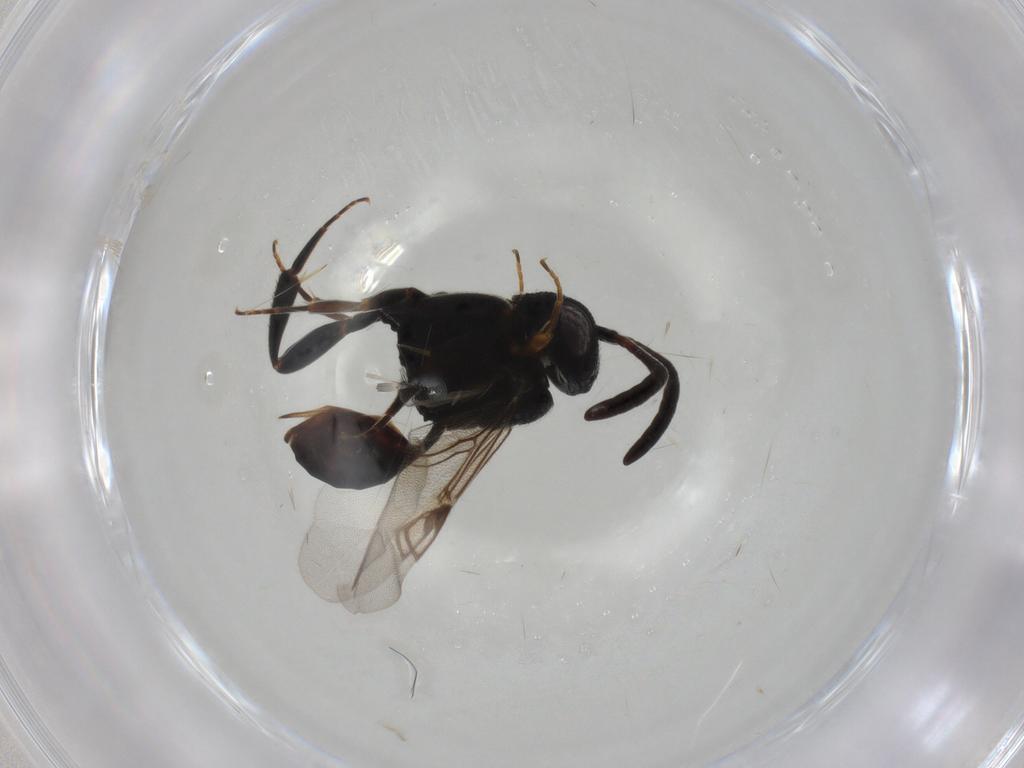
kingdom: Animalia
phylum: Arthropoda
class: Insecta
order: Hymenoptera
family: Evaniidae
